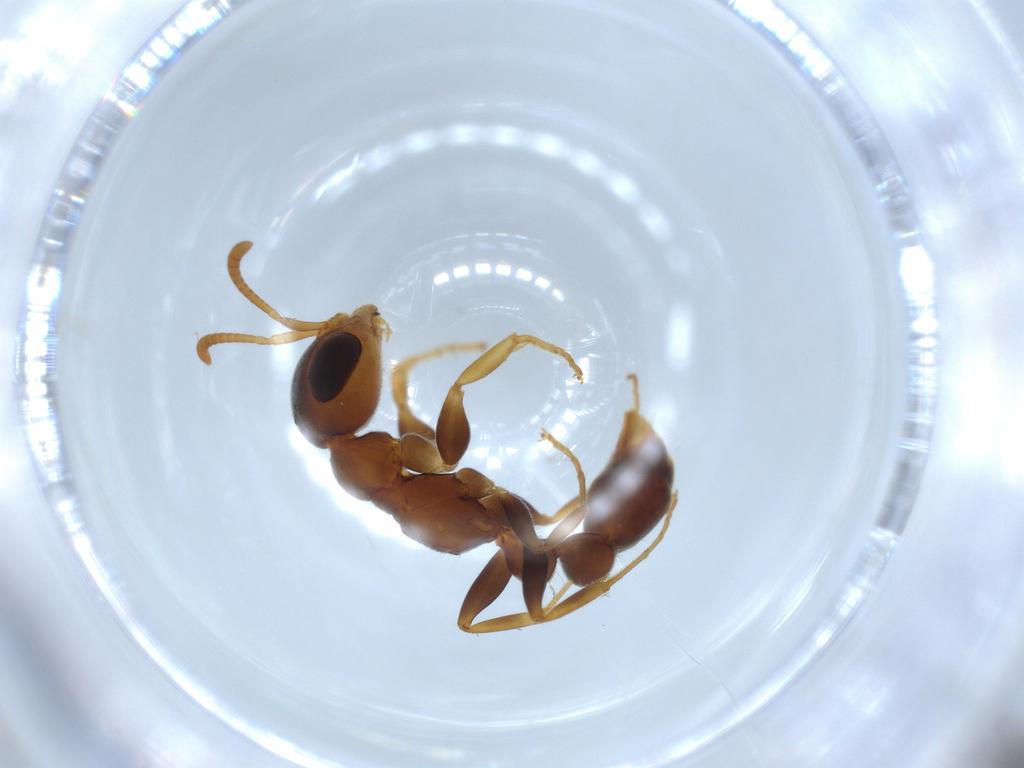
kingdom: Animalia
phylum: Arthropoda
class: Insecta
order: Hymenoptera
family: Formicidae
